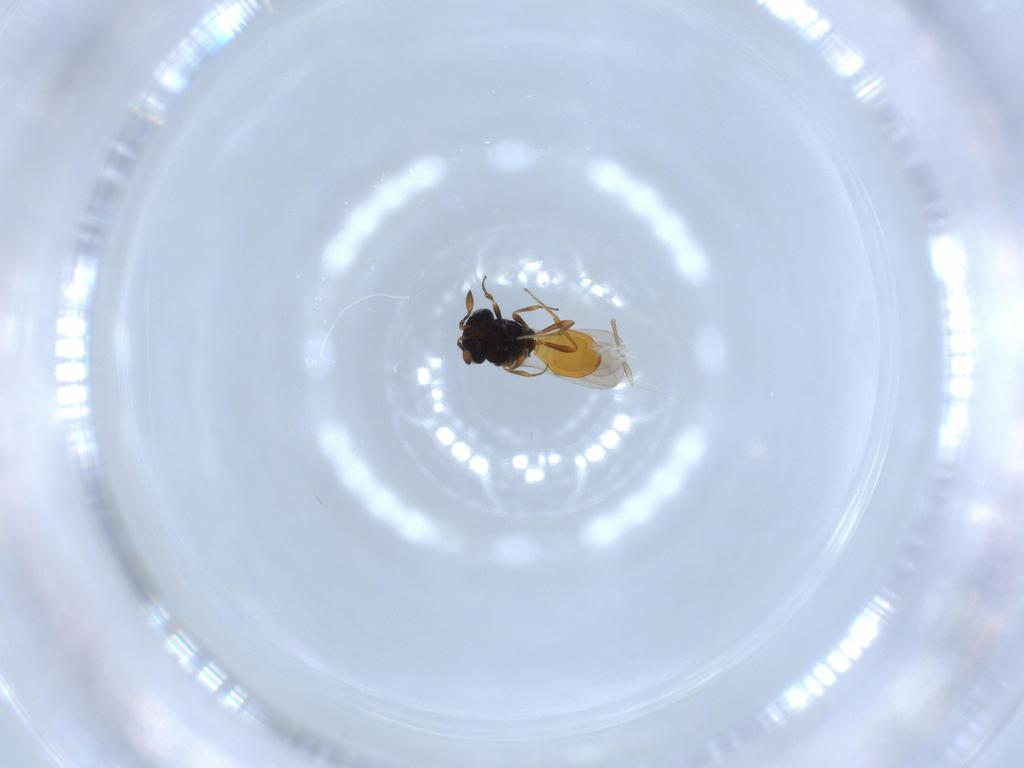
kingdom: Animalia
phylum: Arthropoda
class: Insecta
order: Hymenoptera
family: Scelionidae
